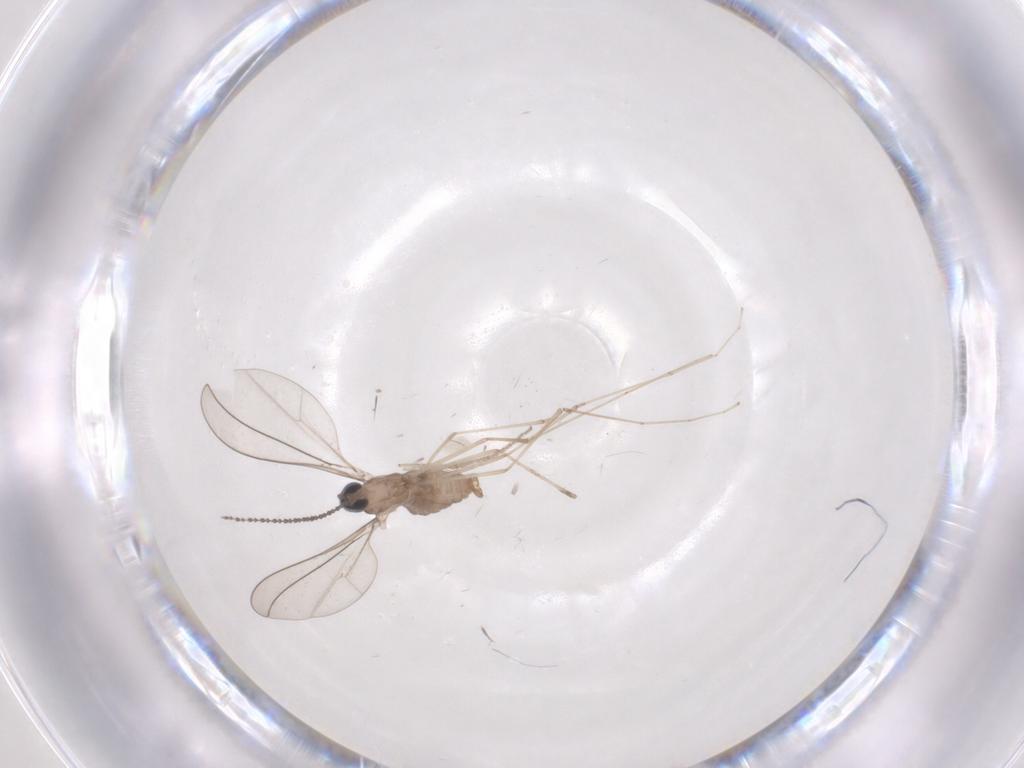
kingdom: Animalia
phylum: Arthropoda
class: Insecta
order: Diptera
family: Cecidomyiidae
